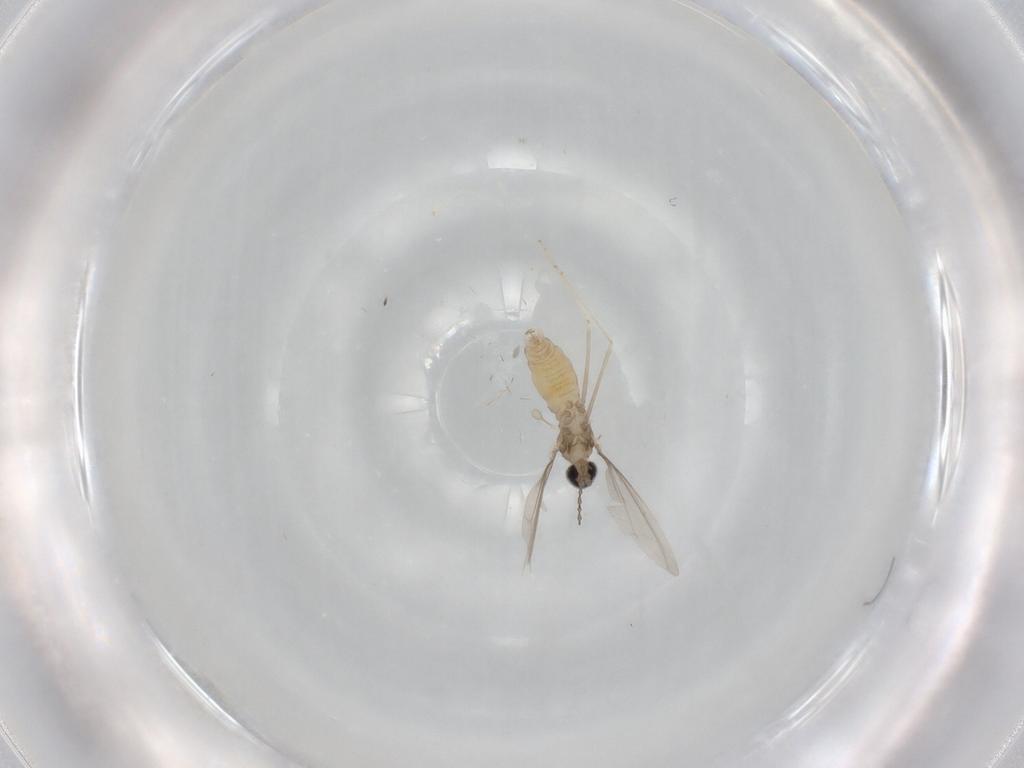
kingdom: Animalia
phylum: Arthropoda
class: Insecta
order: Diptera
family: Cecidomyiidae
